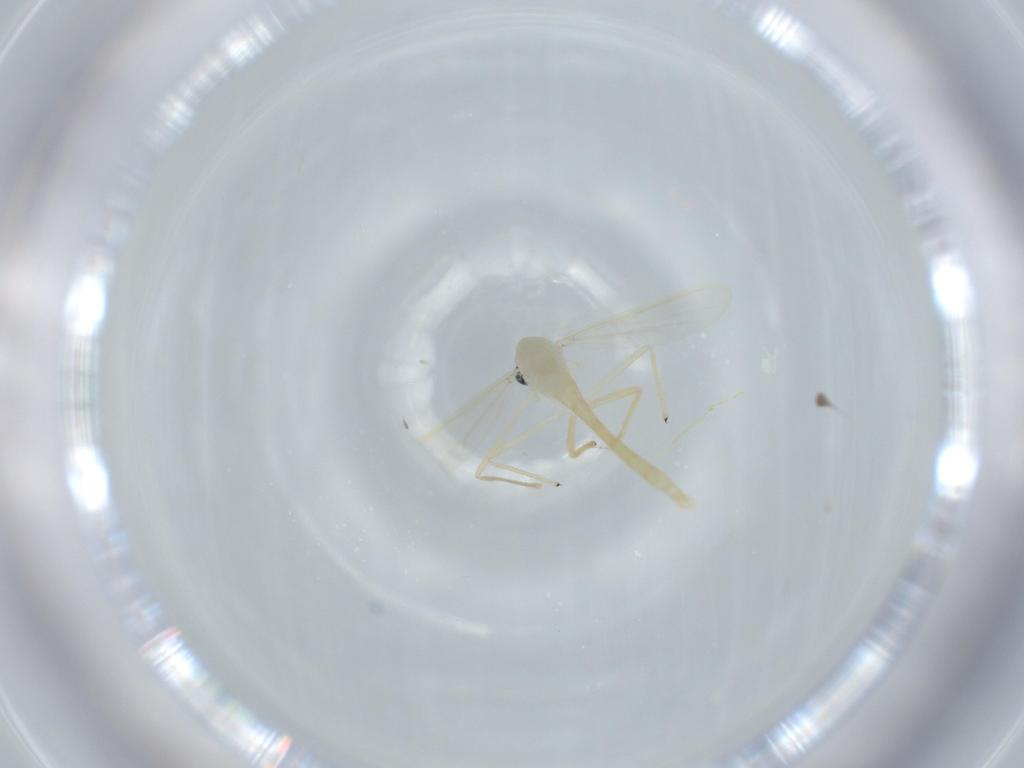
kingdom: Animalia
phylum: Arthropoda
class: Insecta
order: Diptera
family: Chironomidae
